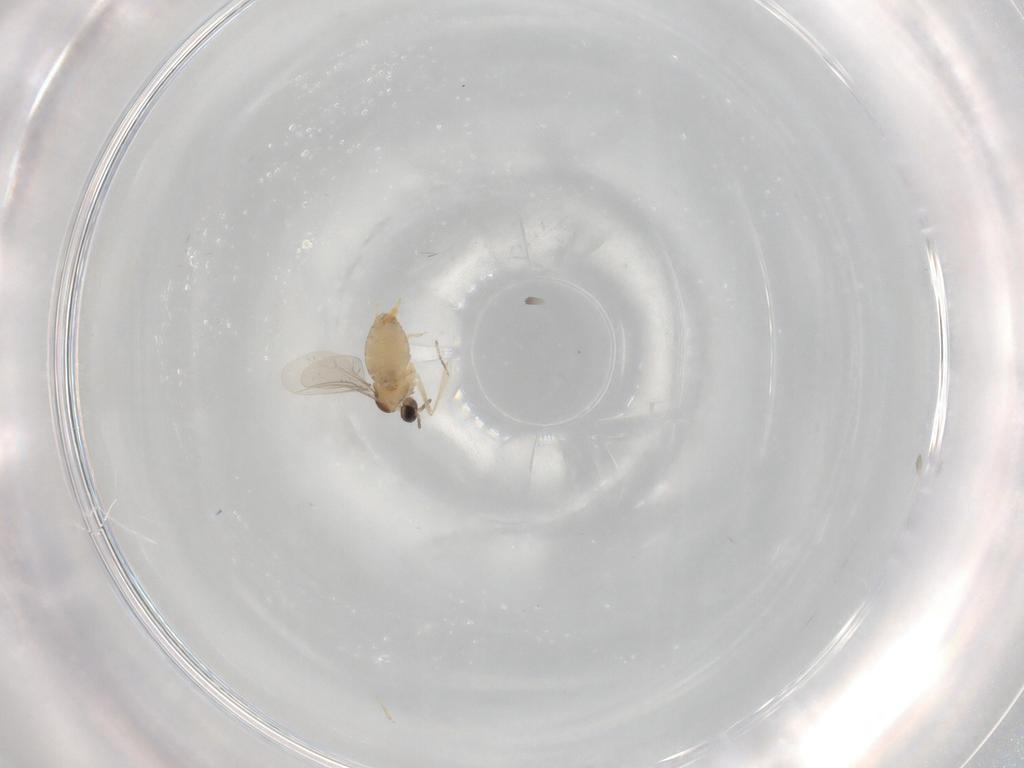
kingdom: Animalia
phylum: Arthropoda
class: Insecta
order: Diptera
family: Cecidomyiidae
